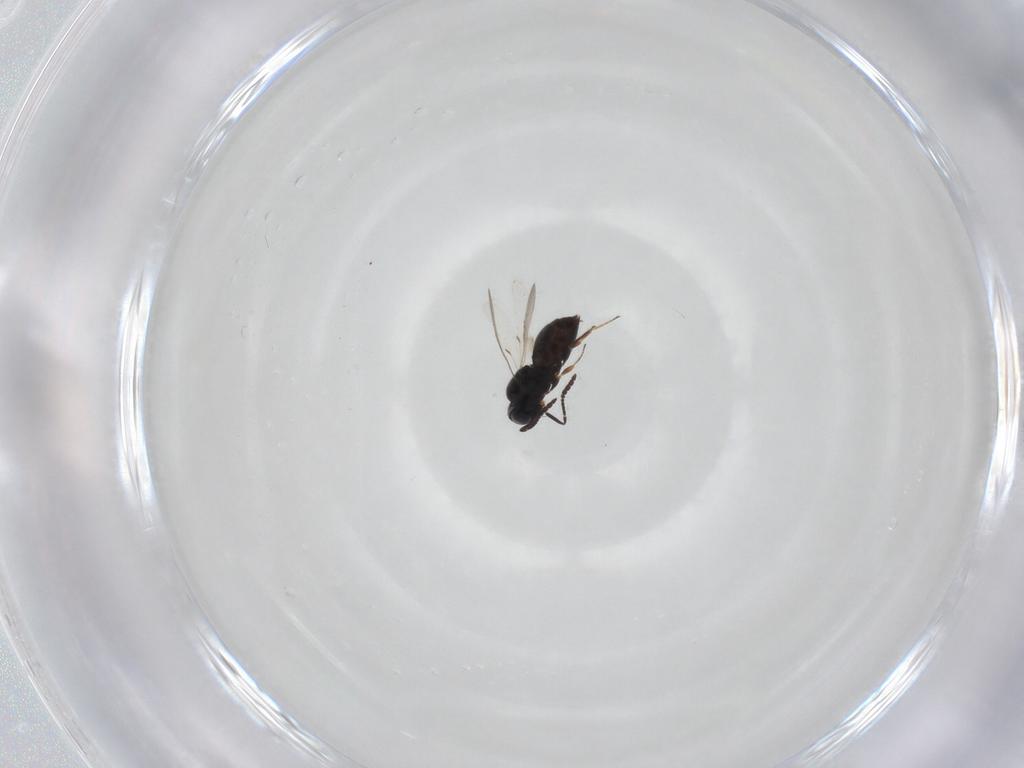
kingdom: Animalia
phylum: Arthropoda
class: Insecta
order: Hymenoptera
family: Scelionidae
